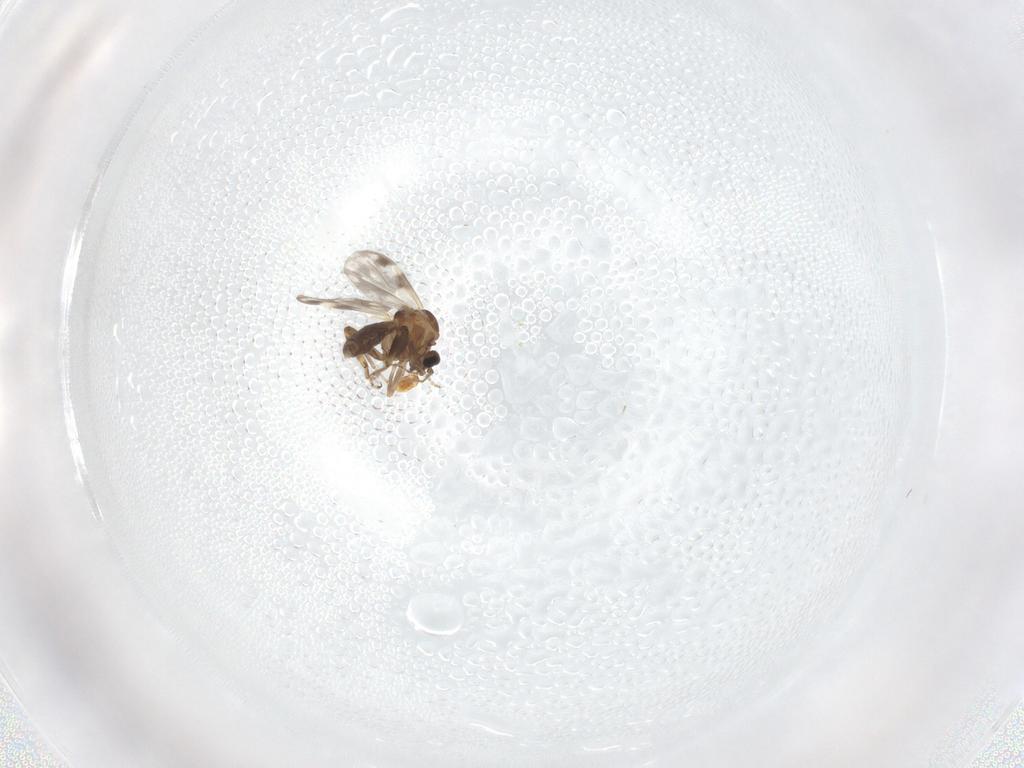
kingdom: Animalia
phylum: Arthropoda
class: Insecta
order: Diptera
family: Ceratopogonidae
